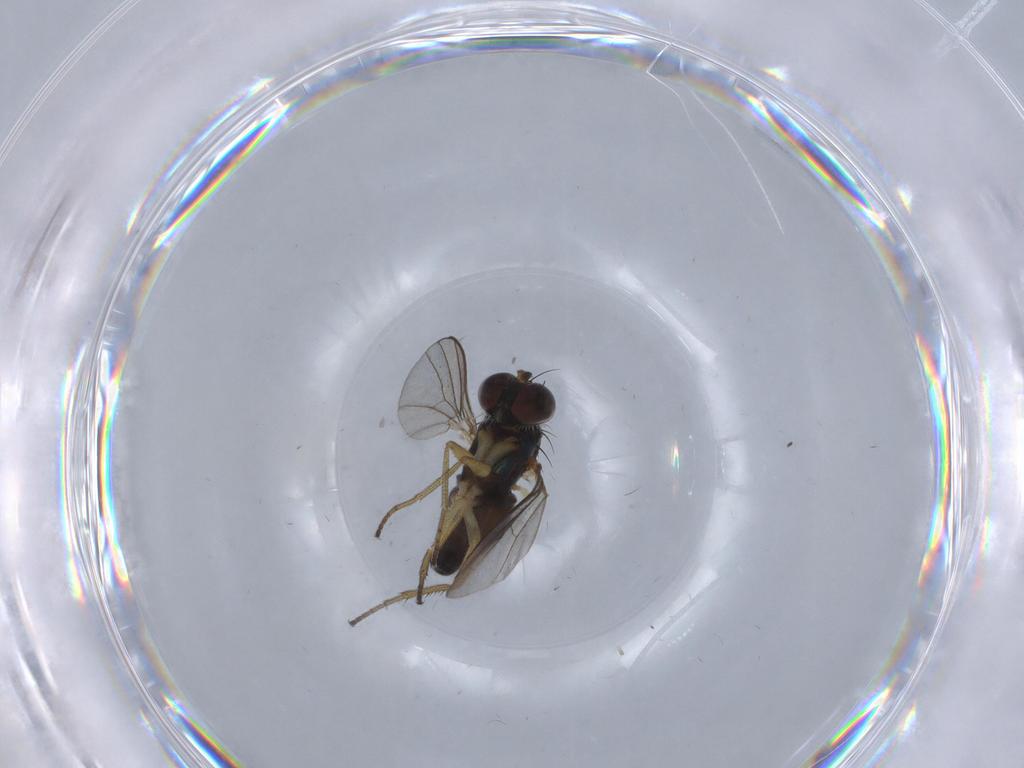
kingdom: Animalia
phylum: Arthropoda
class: Insecta
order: Diptera
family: Dolichopodidae
